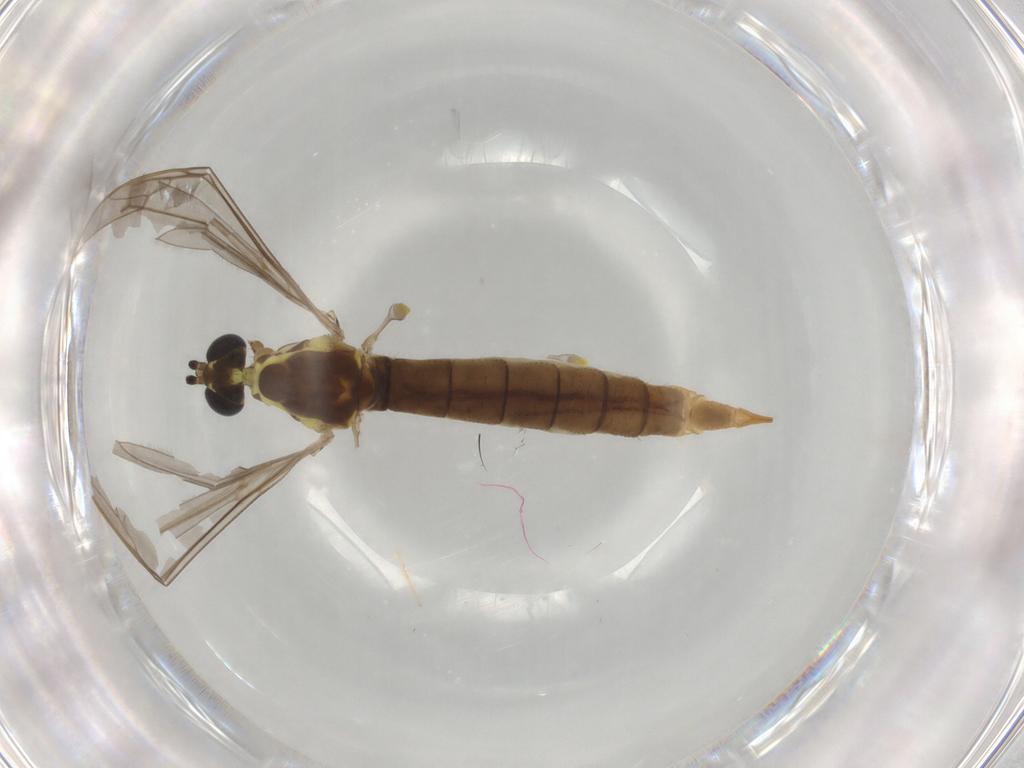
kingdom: Animalia
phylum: Arthropoda
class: Insecta
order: Diptera
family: Limoniidae
